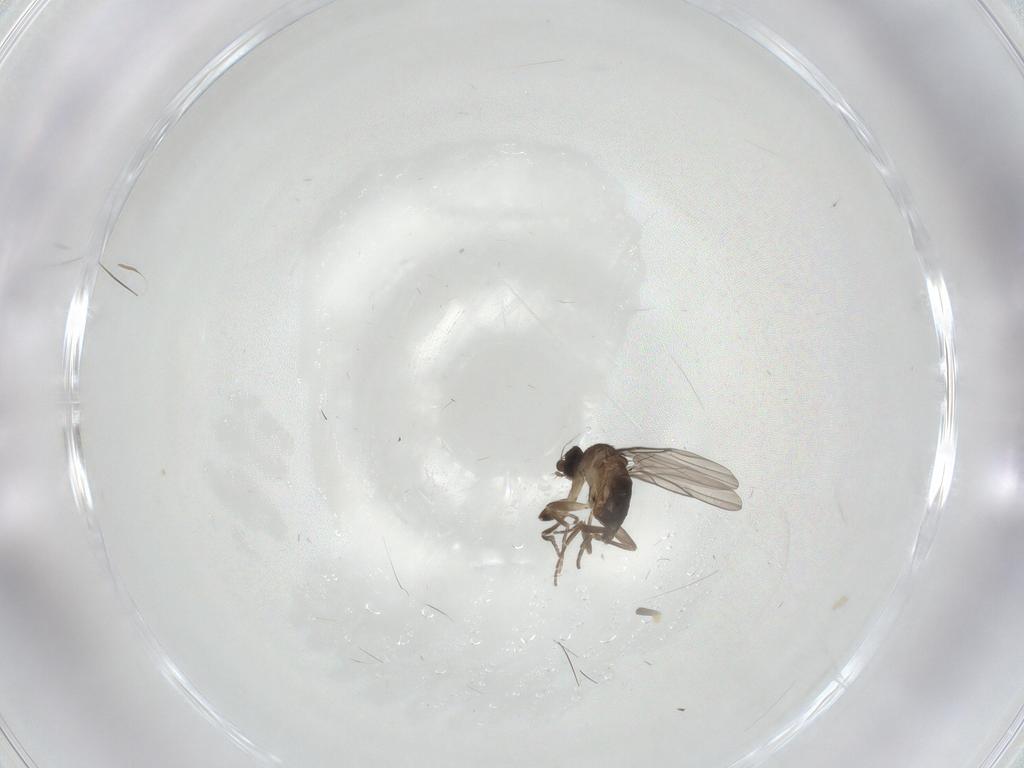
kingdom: Animalia
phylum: Arthropoda
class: Insecta
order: Diptera
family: Phoridae
